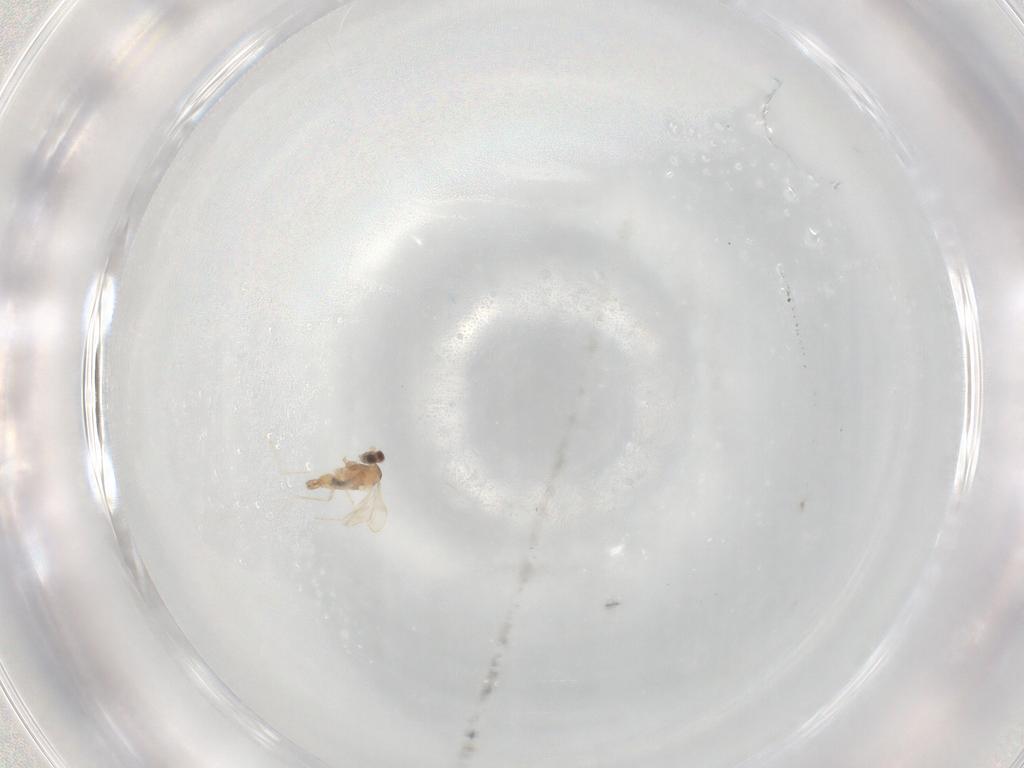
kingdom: Animalia
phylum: Arthropoda
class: Insecta
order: Diptera
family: Cecidomyiidae
